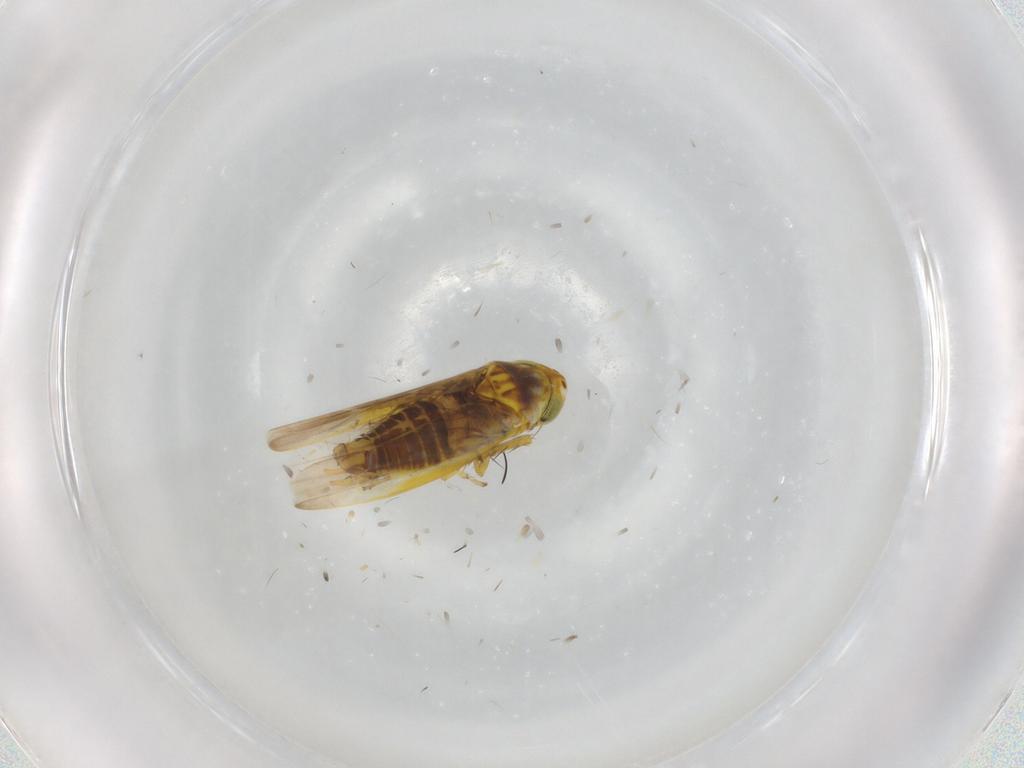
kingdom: Animalia
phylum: Arthropoda
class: Insecta
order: Hemiptera
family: Cicadellidae
